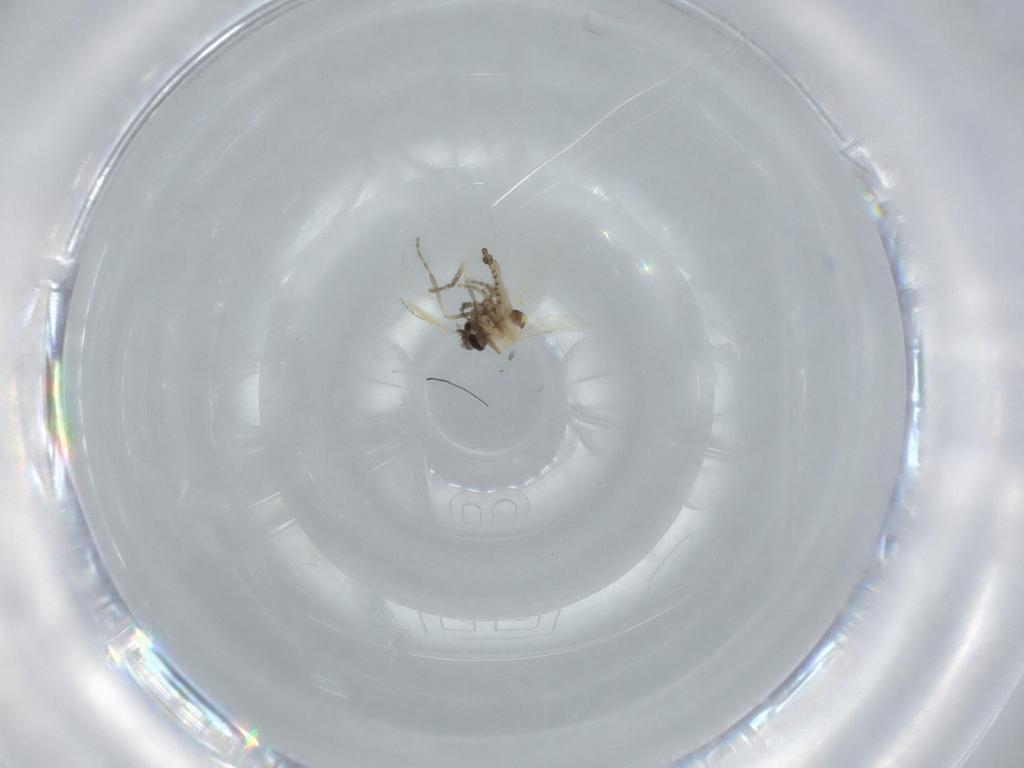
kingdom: Animalia
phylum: Arthropoda
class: Insecta
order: Diptera
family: Ceratopogonidae
